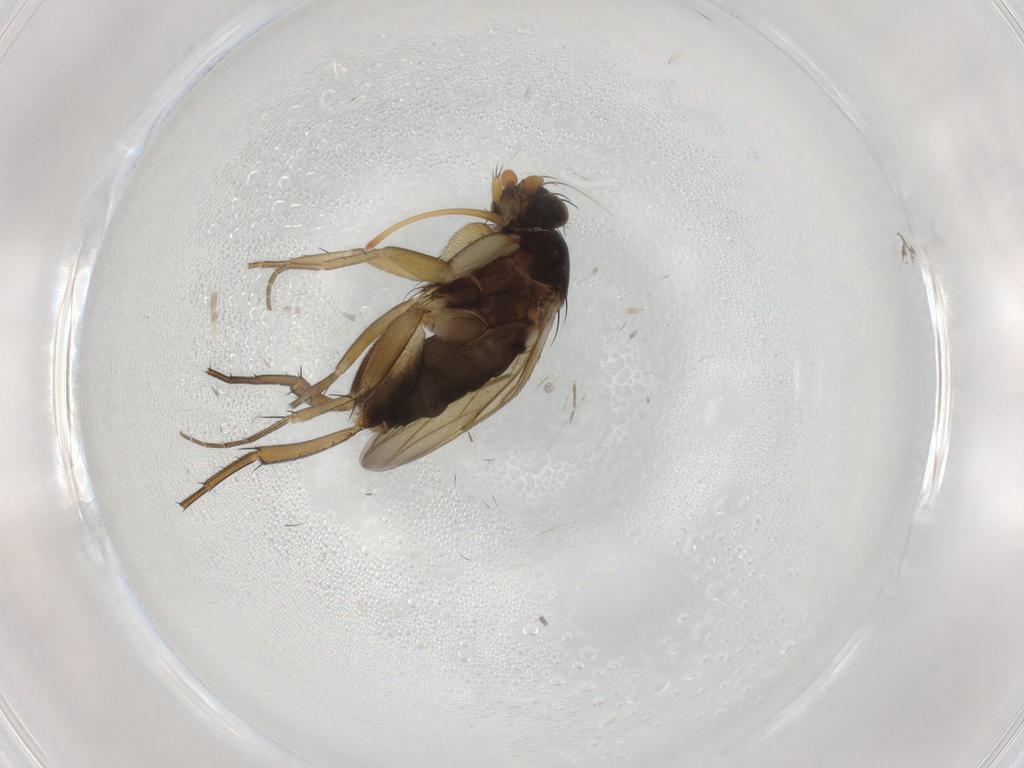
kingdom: Animalia
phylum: Arthropoda
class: Insecta
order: Diptera
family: Phoridae
